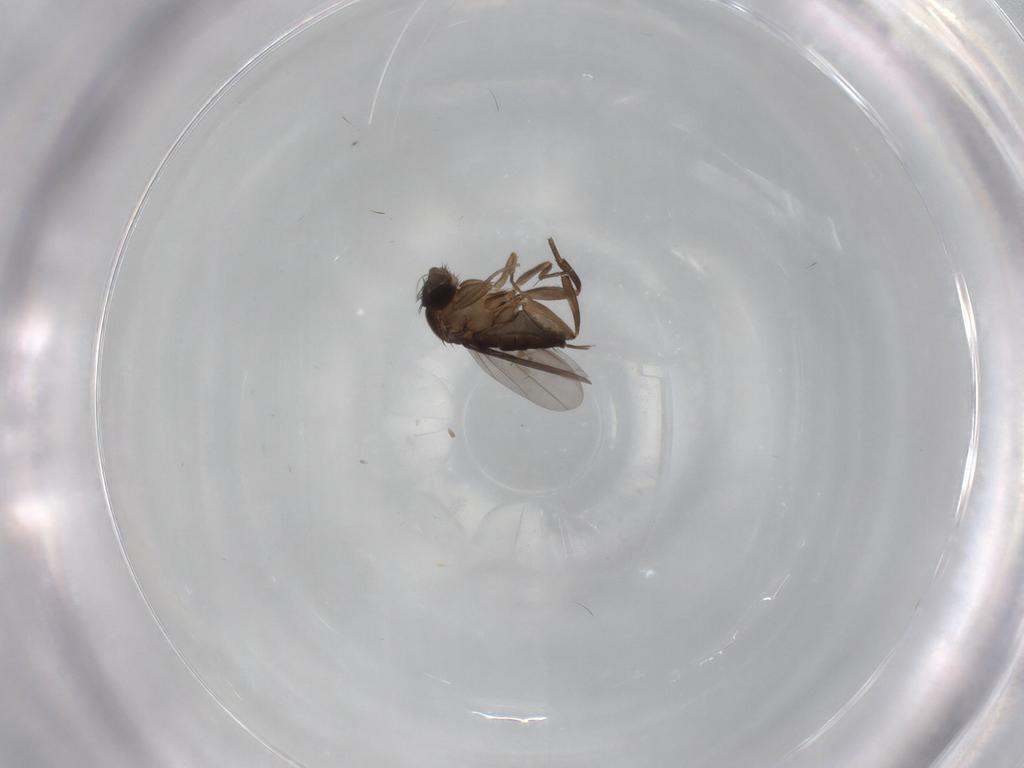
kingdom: Animalia
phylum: Arthropoda
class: Insecta
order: Diptera
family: Phoridae
